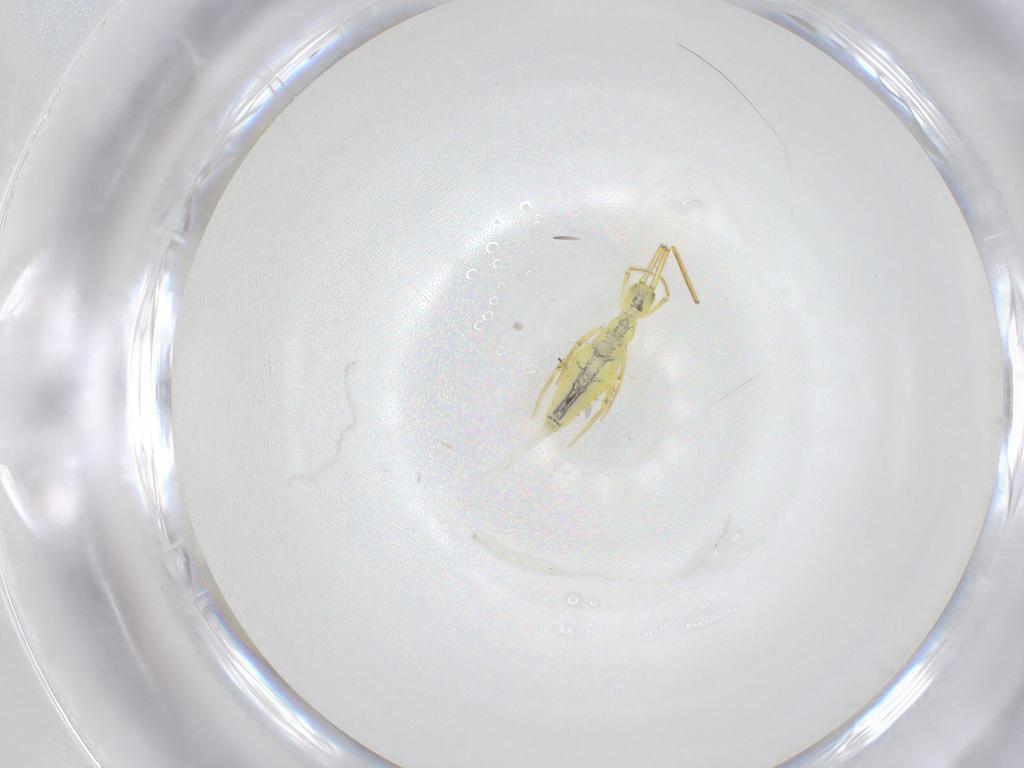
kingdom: Animalia
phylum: Arthropoda
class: Collembola
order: Entomobryomorpha
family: Entomobryidae
